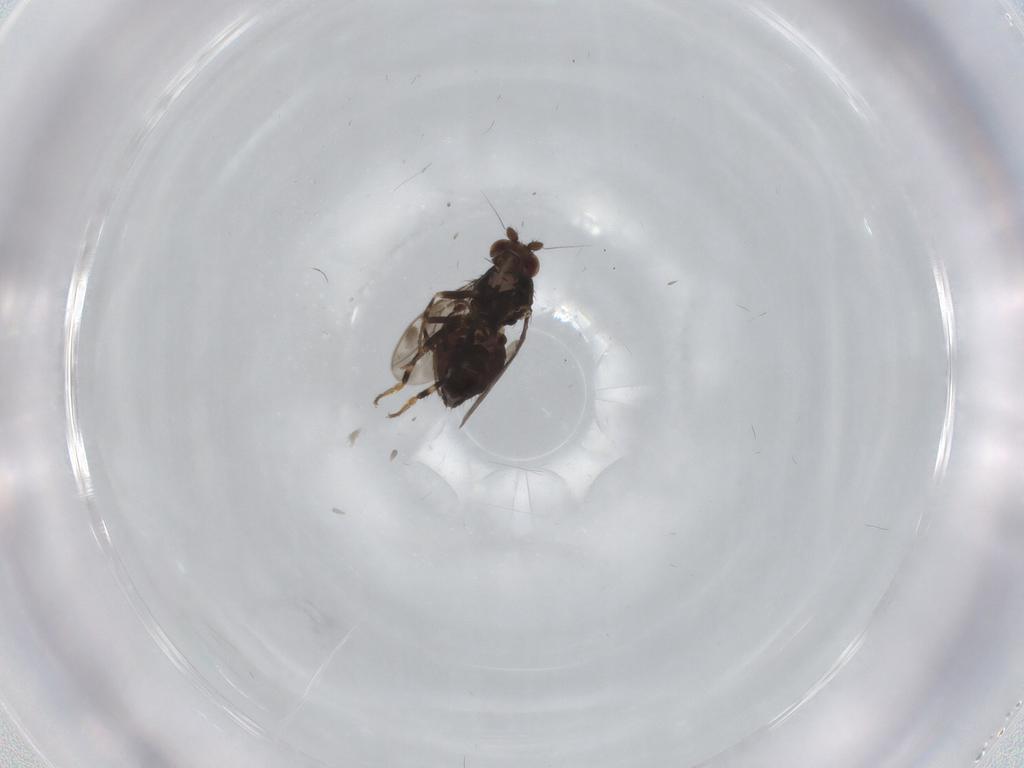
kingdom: Animalia
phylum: Arthropoda
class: Insecta
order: Diptera
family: Sphaeroceridae
